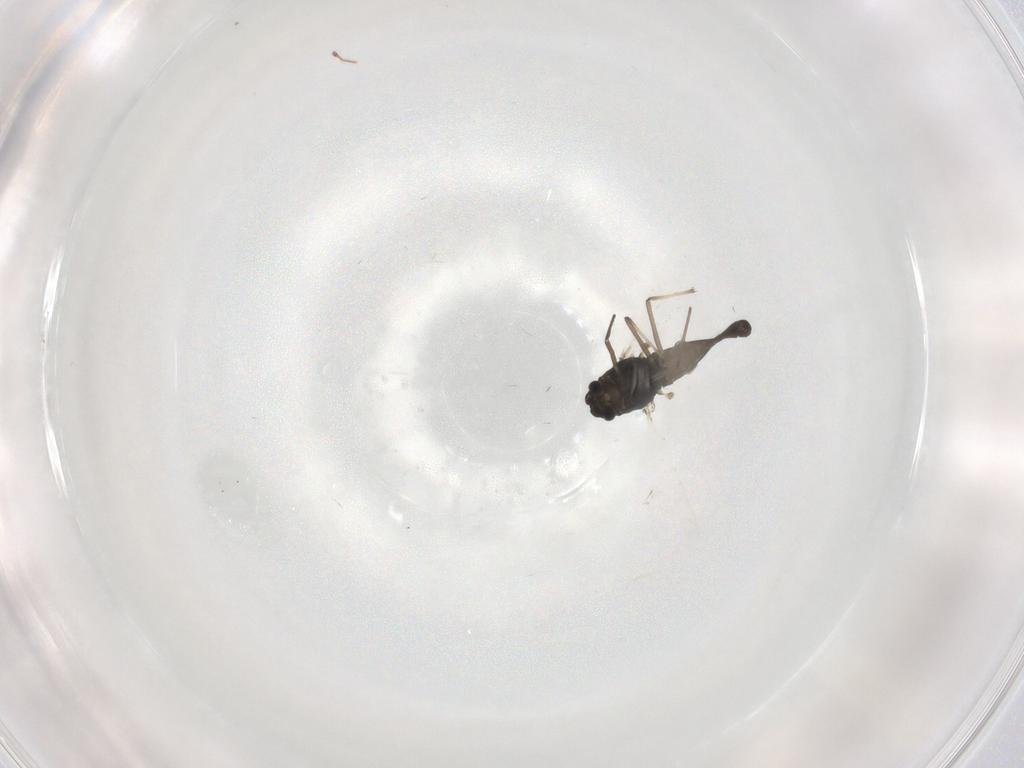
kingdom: Animalia
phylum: Arthropoda
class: Insecta
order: Diptera
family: Chironomidae
